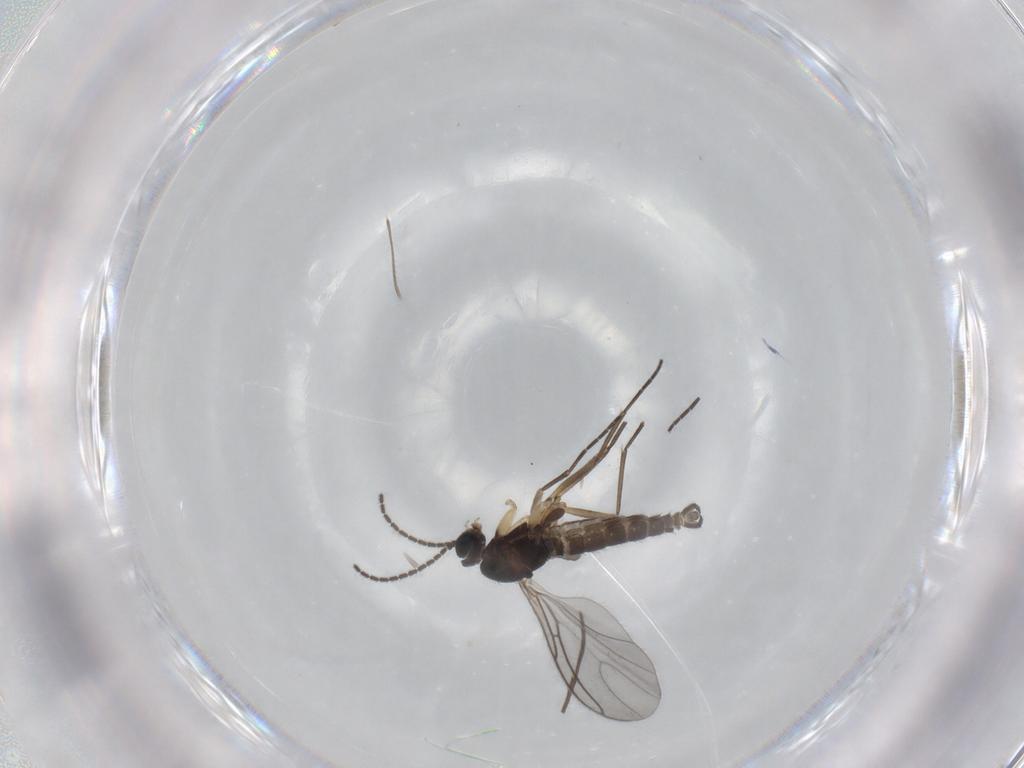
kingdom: Animalia
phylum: Arthropoda
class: Insecta
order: Diptera
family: Sciaridae
